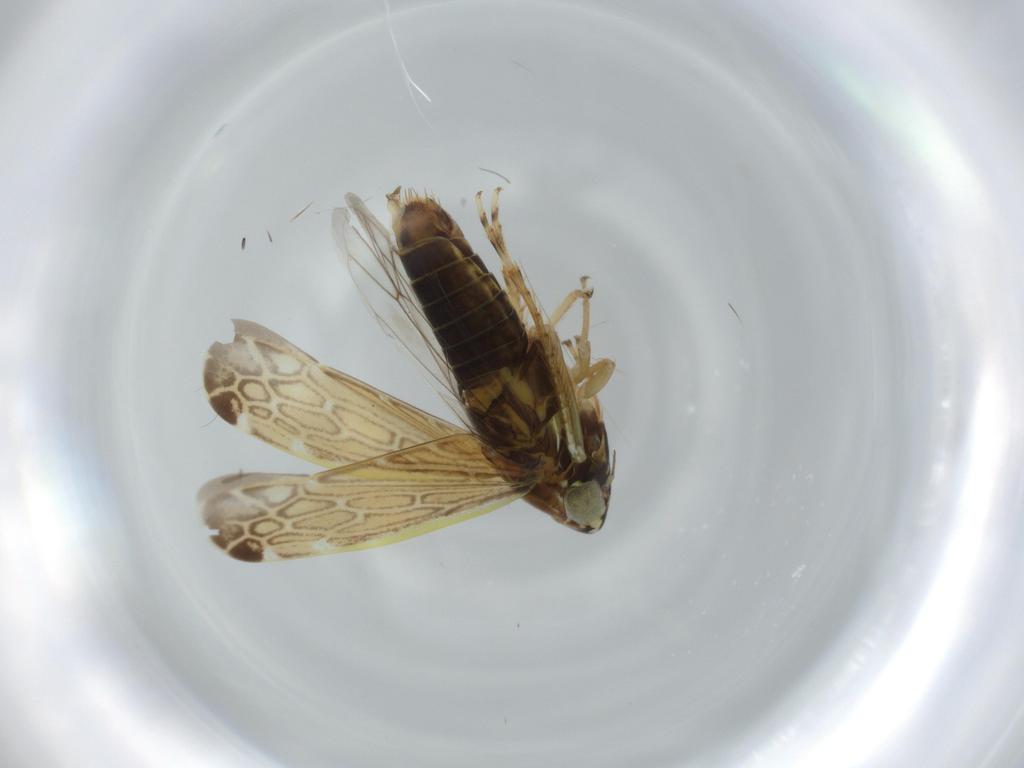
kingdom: Animalia
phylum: Arthropoda
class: Insecta
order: Hemiptera
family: Cicadellidae
